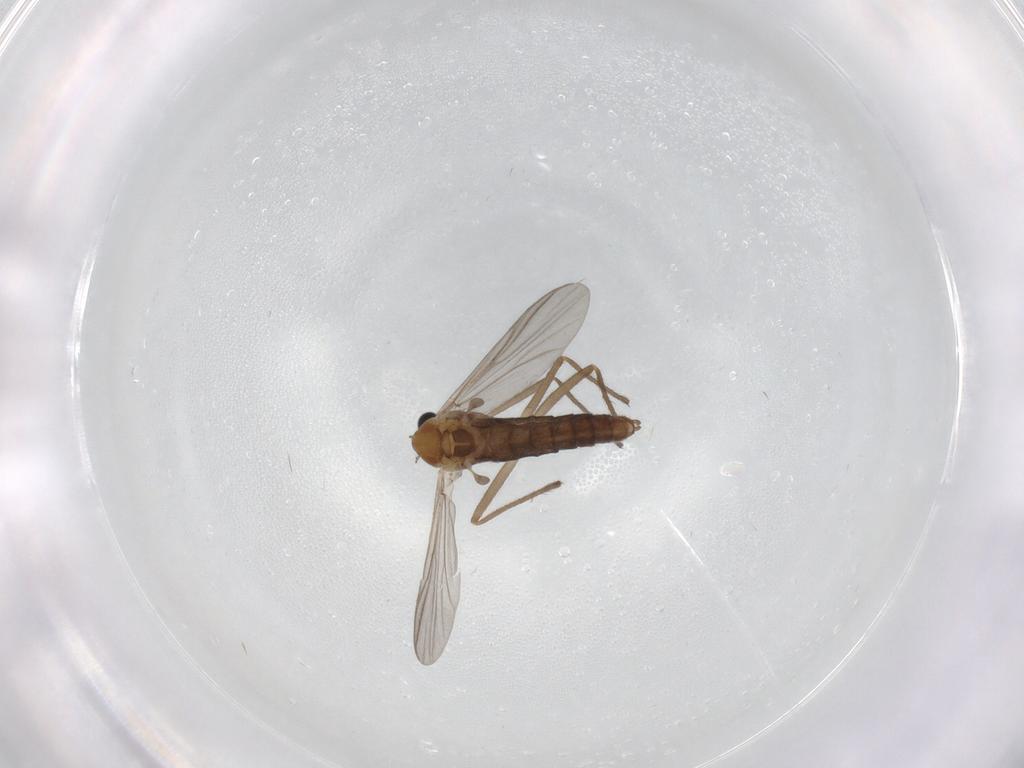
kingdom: Animalia
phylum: Arthropoda
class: Insecta
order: Diptera
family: Chironomidae
